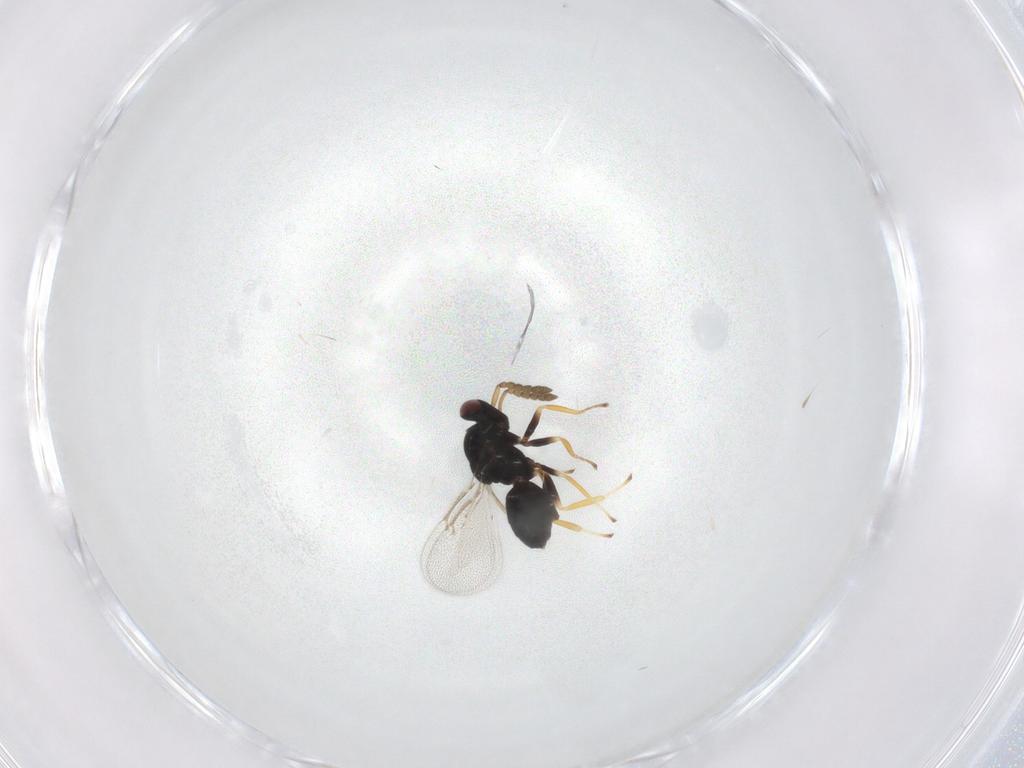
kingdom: Animalia
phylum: Arthropoda
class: Insecta
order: Hymenoptera
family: Eulophidae
